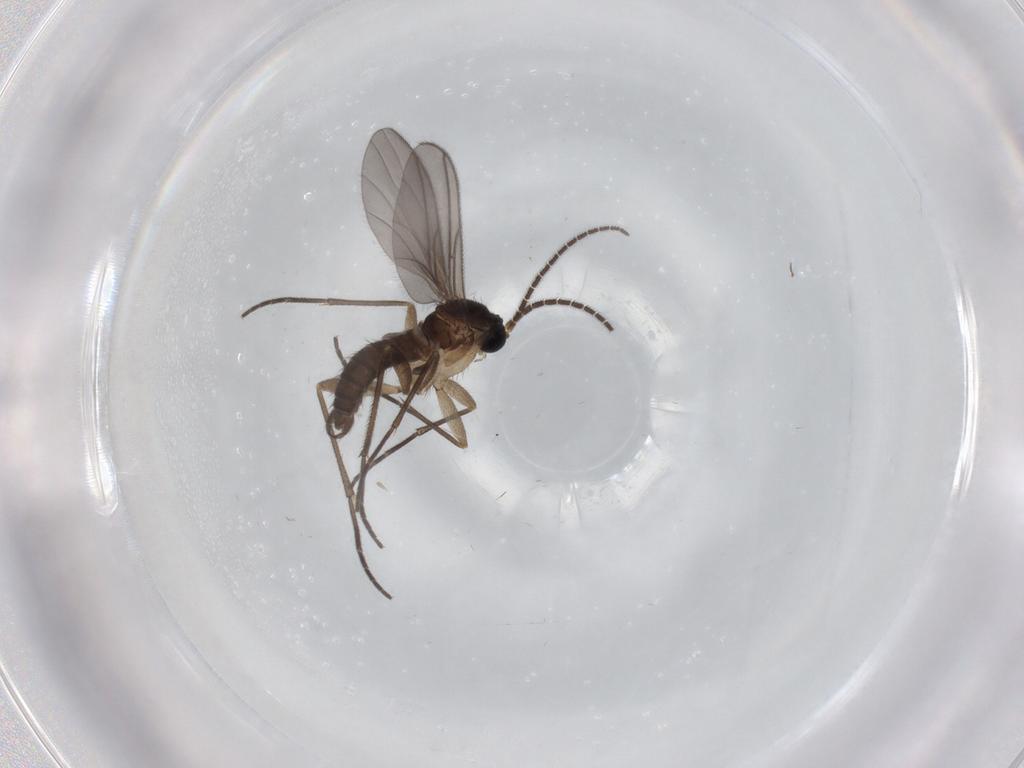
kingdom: Animalia
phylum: Arthropoda
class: Insecta
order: Diptera
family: Sciaridae
